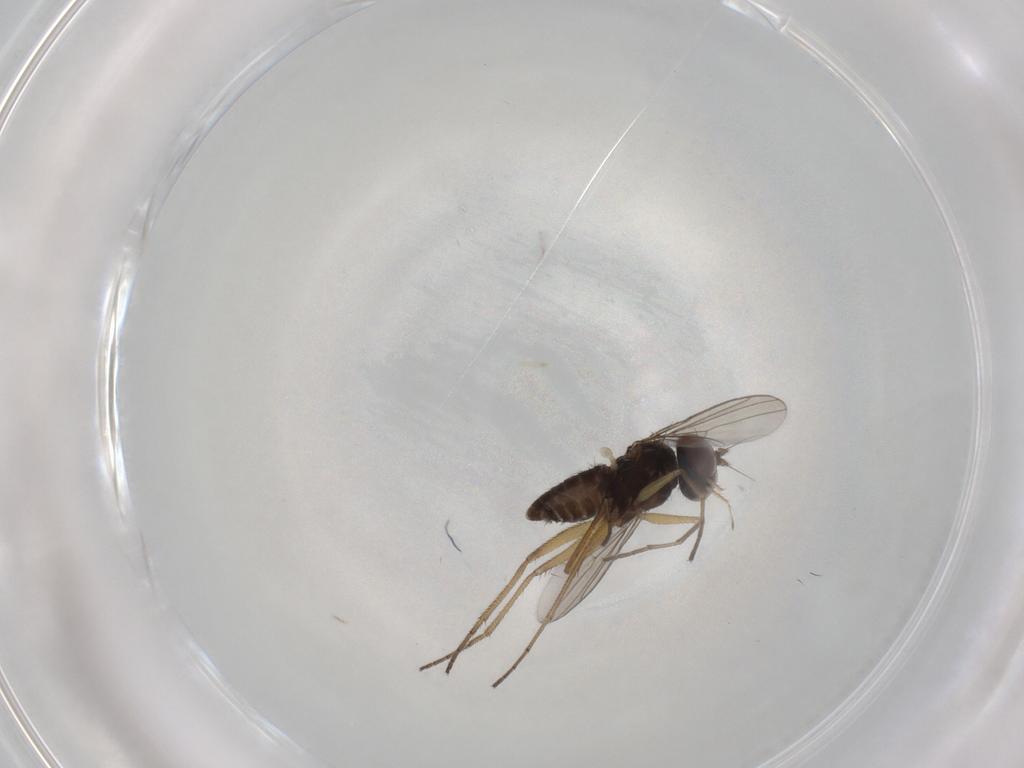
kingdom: Animalia
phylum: Arthropoda
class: Insecta
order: Diptera
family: Dolichopodidae
